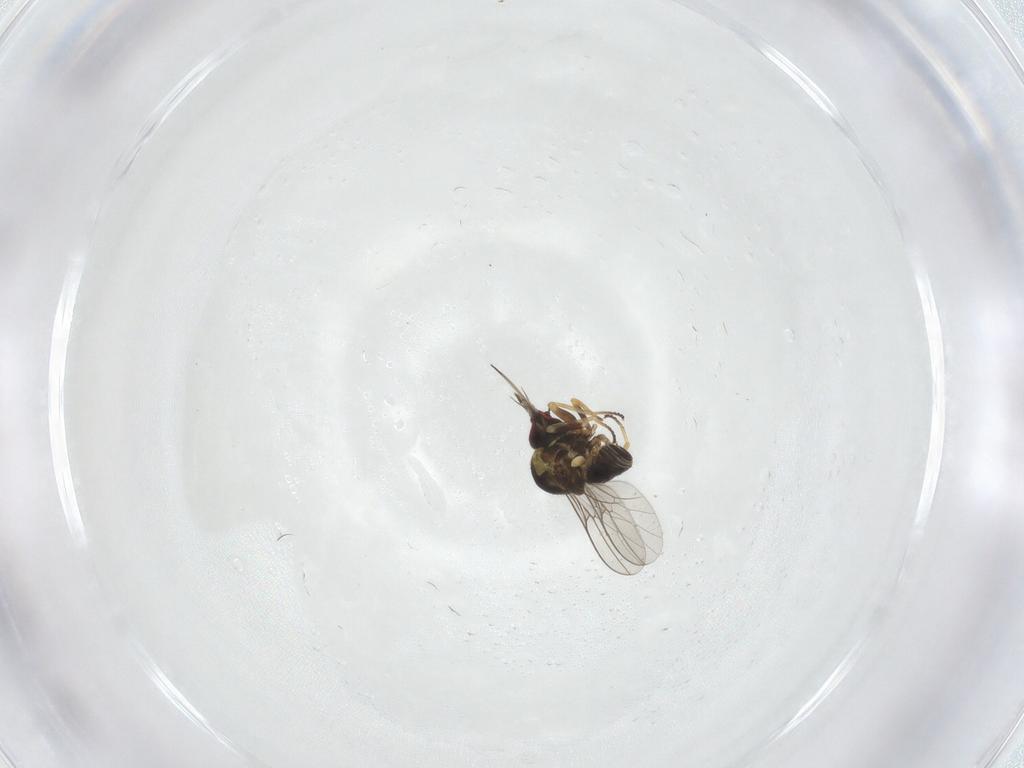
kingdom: Animalia
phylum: Arthropoda
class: Insecta
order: Diptera
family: Bombyliidae
